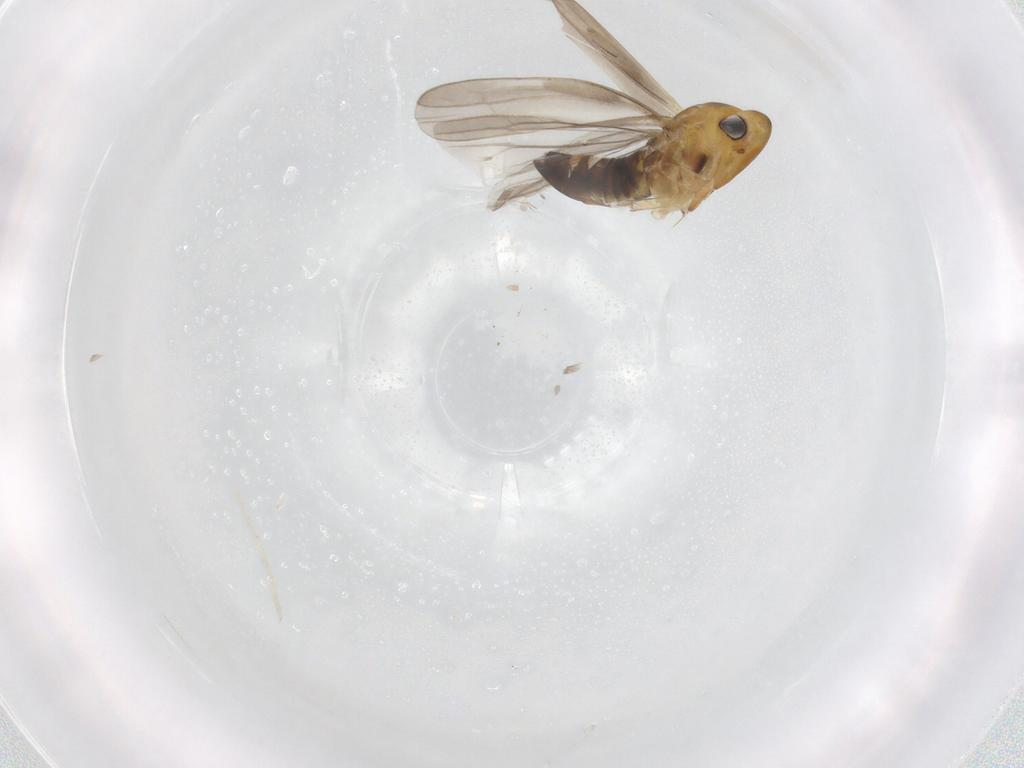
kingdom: Animalia
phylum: Arthropoda
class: Insecta
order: Hemiptera
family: Cicadellidae
